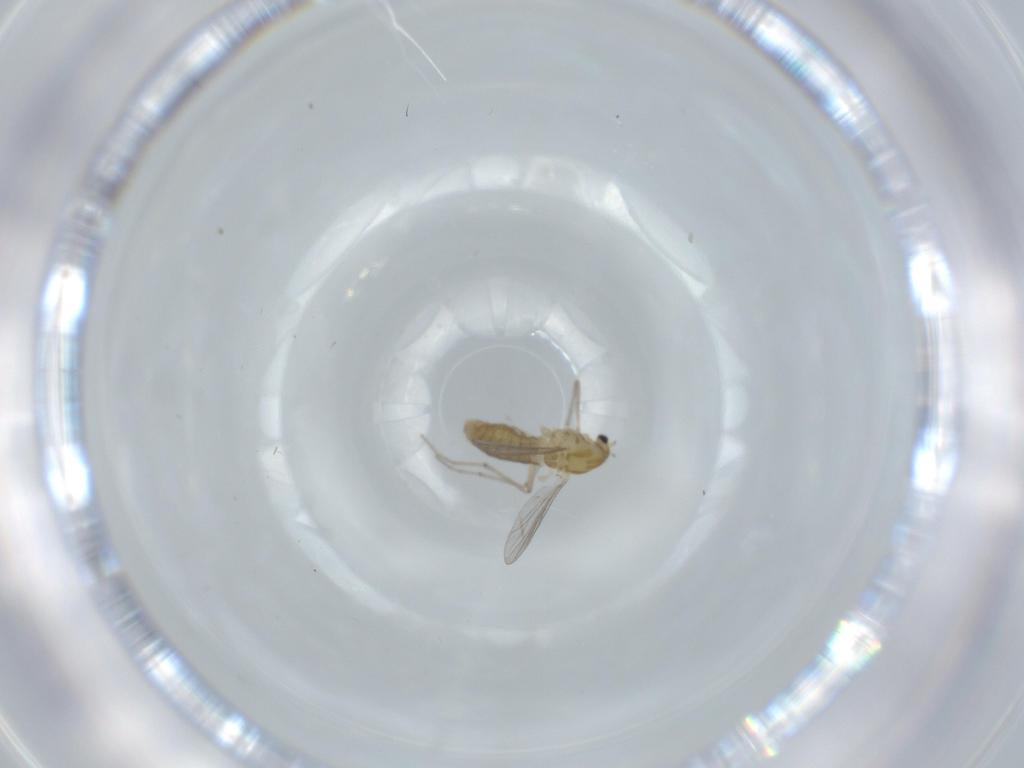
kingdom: Animalia
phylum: Arthropoda
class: Insecta
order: Diptera
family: Chironomidae
